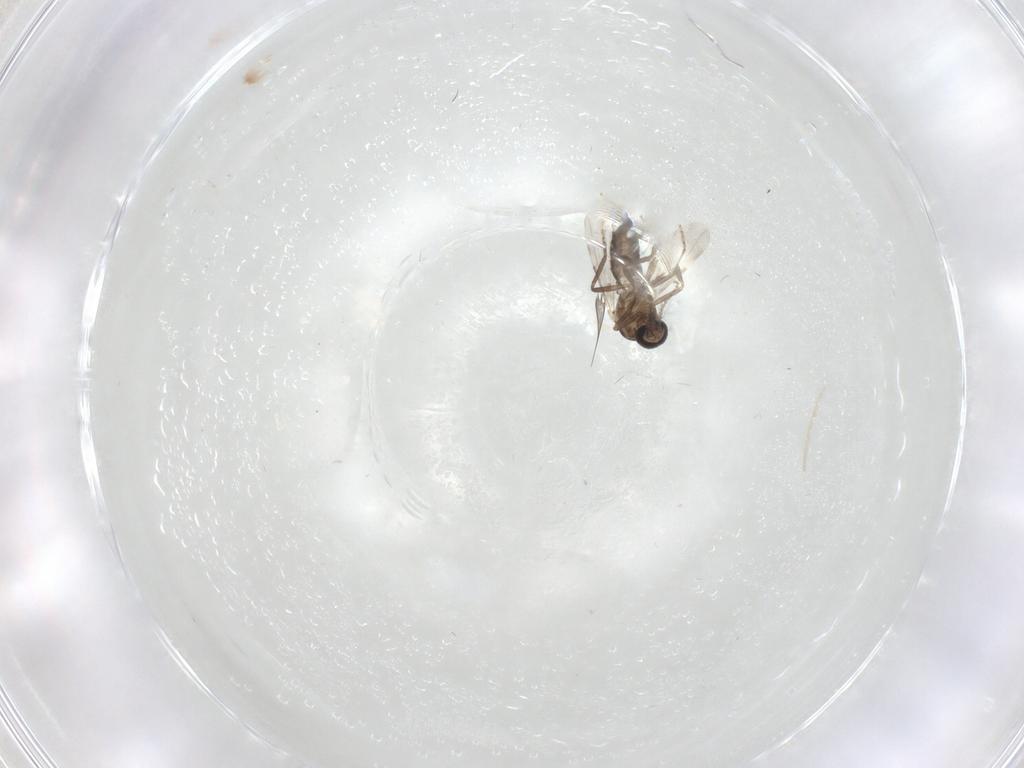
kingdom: Animalia
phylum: Arthropoda
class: Insecta
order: Diptera
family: Ceratopogonidae
